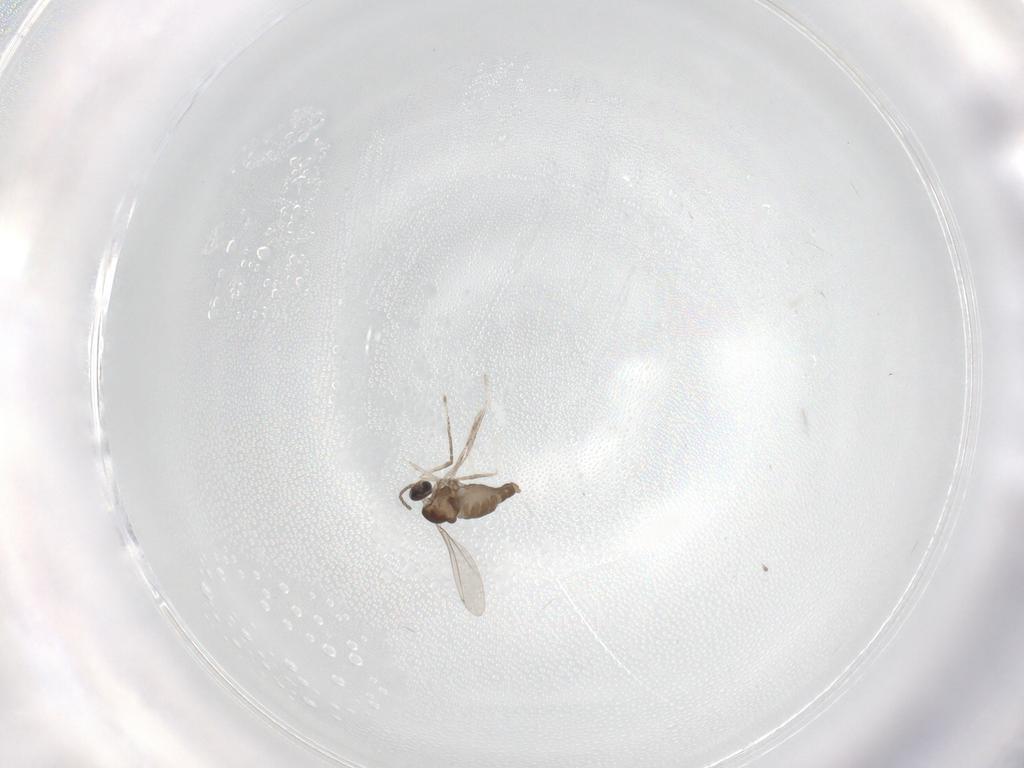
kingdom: Animalia
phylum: Arthropoda
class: Insecta
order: Diptera
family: Cecidomyiidae
